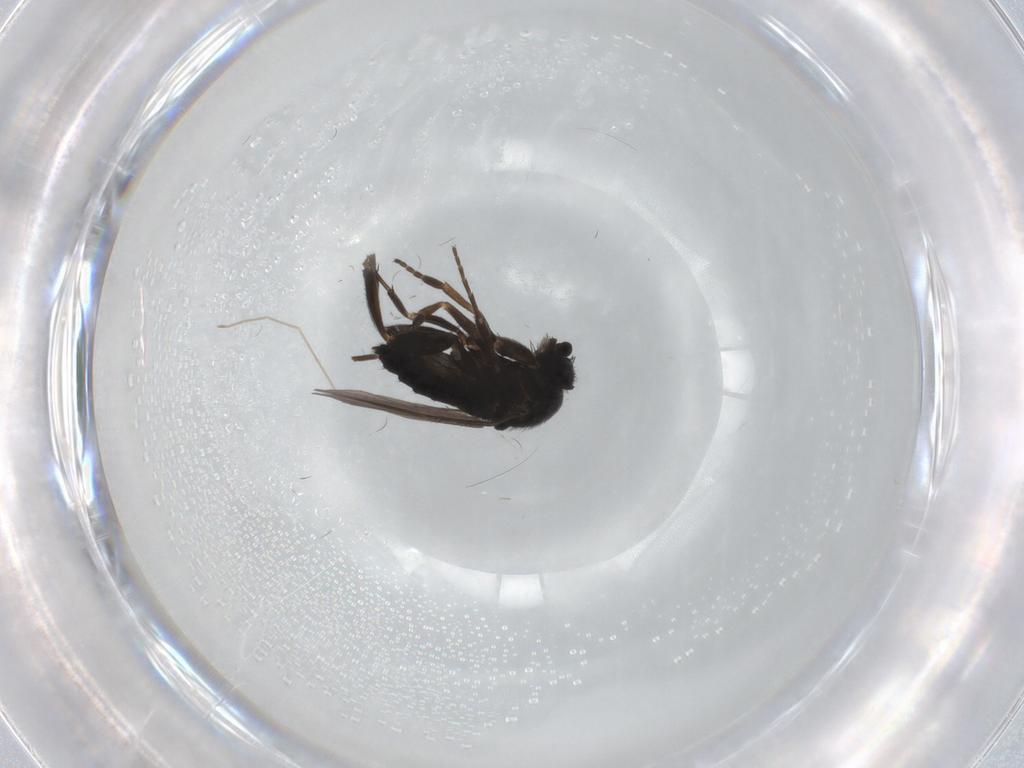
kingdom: Animalia
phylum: Arthropoda
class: Insecta
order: Diptera
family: Phoridae
